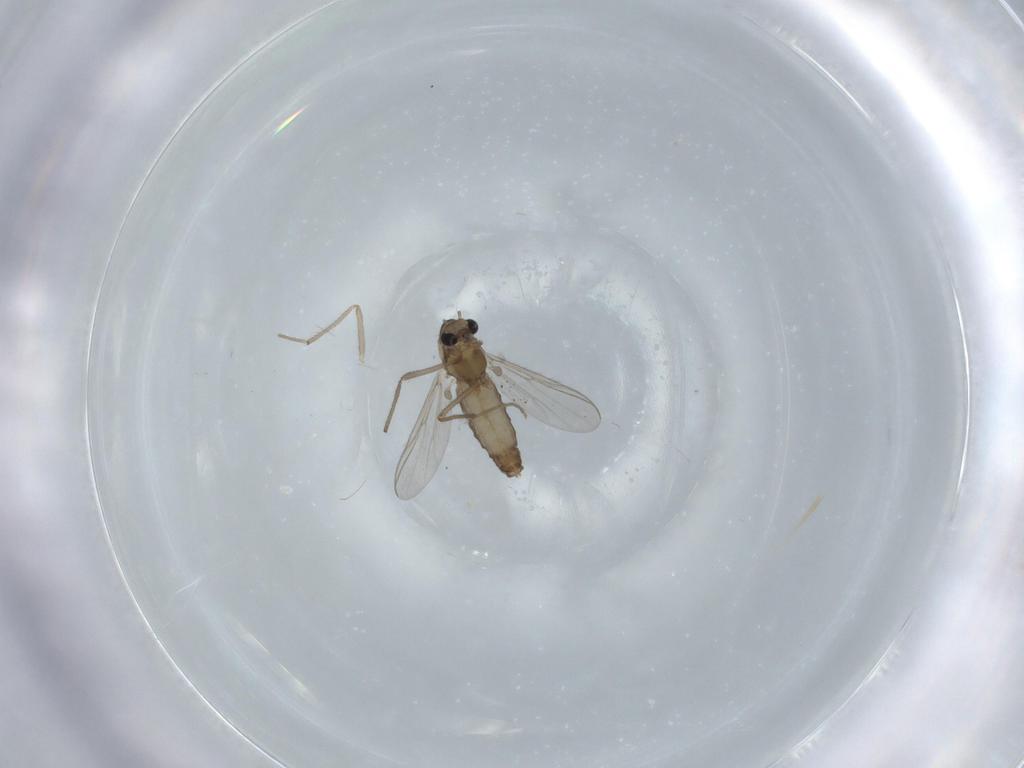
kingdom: Animalia
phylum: Arthropoda
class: Insecta
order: Diptera
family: Chironomidae
